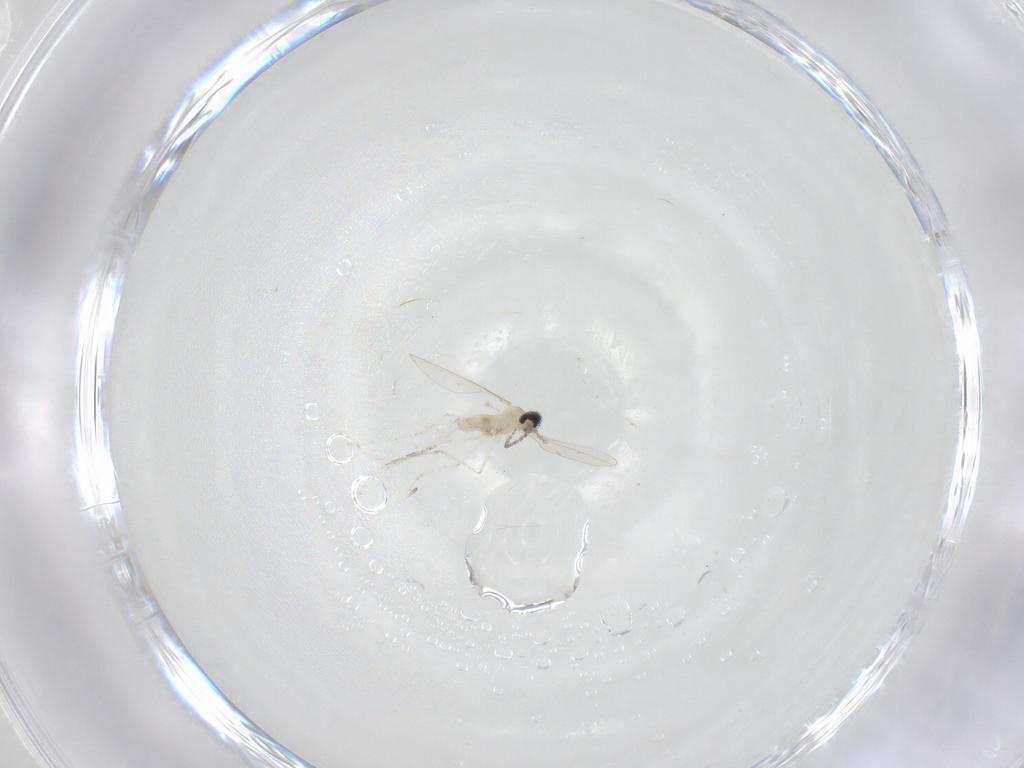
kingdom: Animalia
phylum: Arthropoda
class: Insecta
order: Diptera
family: Cecidomyiidae
